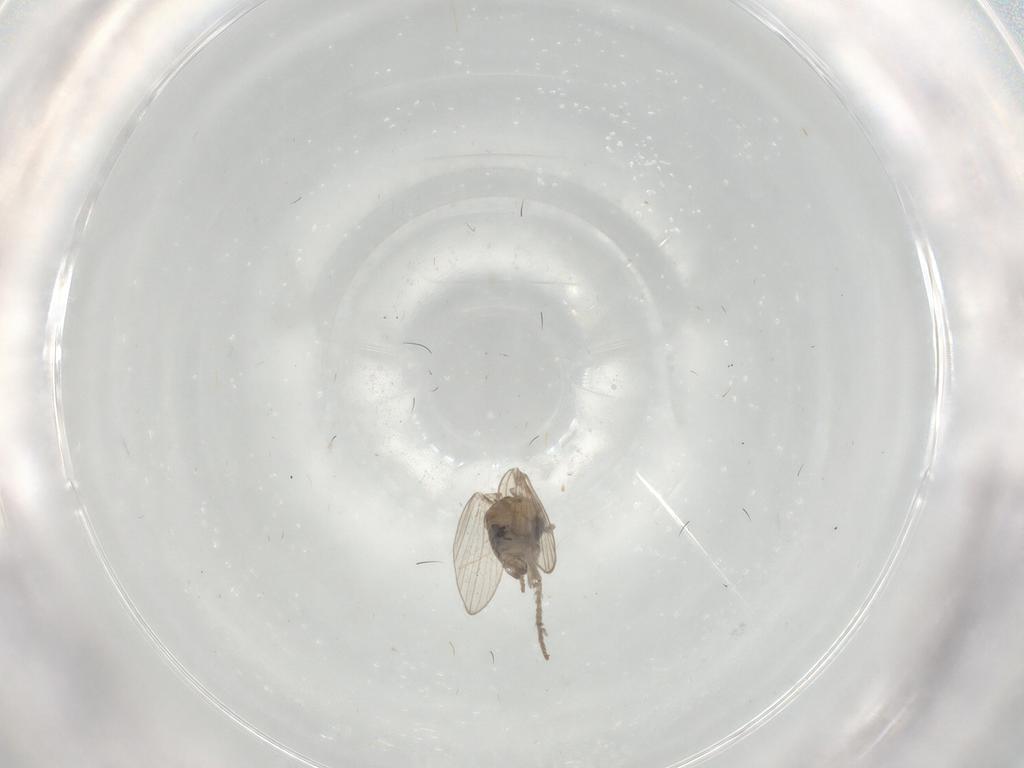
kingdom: Animalia
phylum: Arthropoda
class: Insecta
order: Diptera
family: Psychodidae
